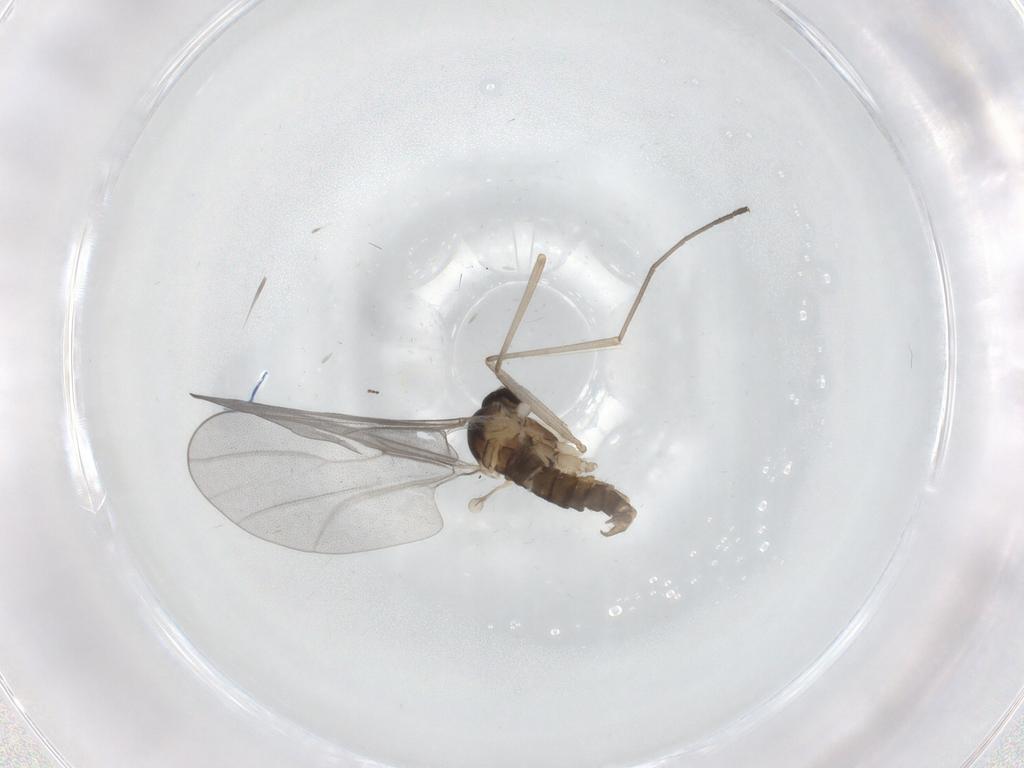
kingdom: Animalia
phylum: Arthropoda
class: Insecta
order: Diptera
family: Cecidomyiidae
